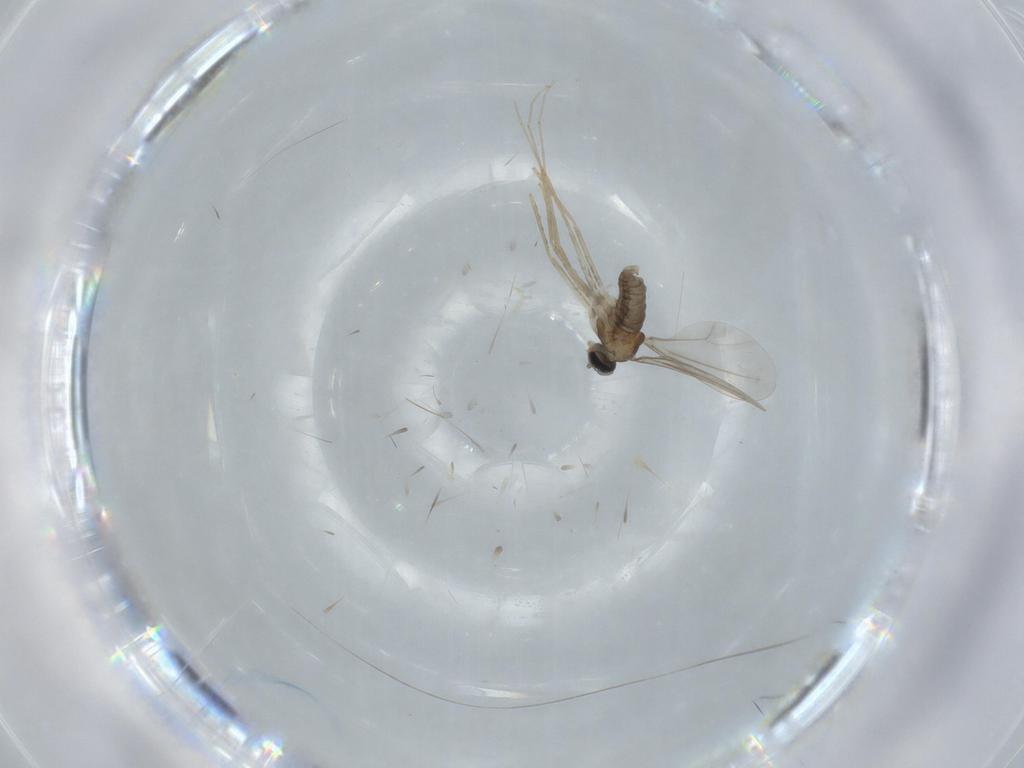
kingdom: Animalia
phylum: Arthropoda
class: Insecta
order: Diptera
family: Cecidomyiidae
